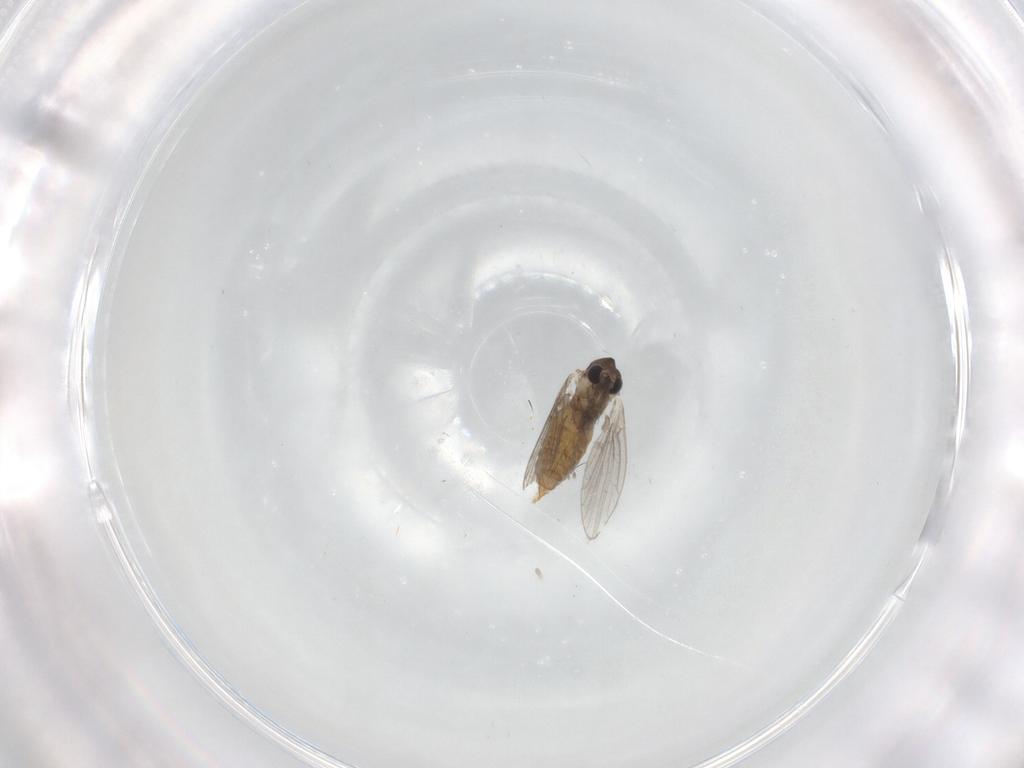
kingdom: Animalia
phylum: Arthropoda
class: Insecta
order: Diptera
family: Psychodidae
